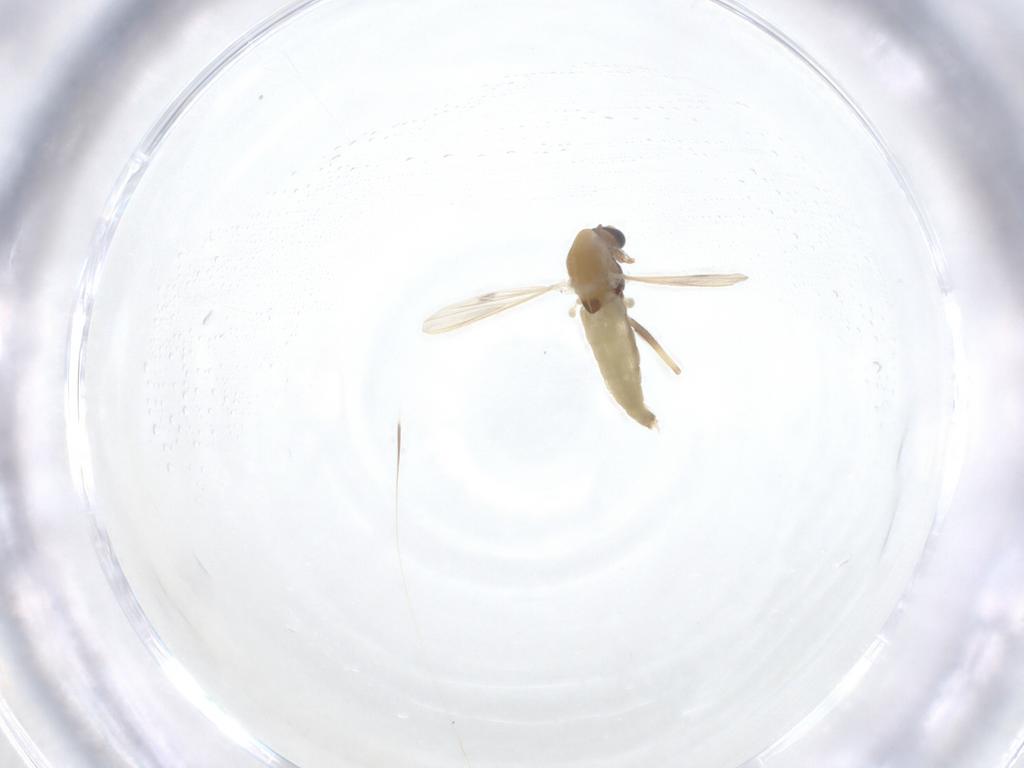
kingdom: Animalia
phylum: Arthropoda
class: Insecta
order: Diptera
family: Chironomidae
